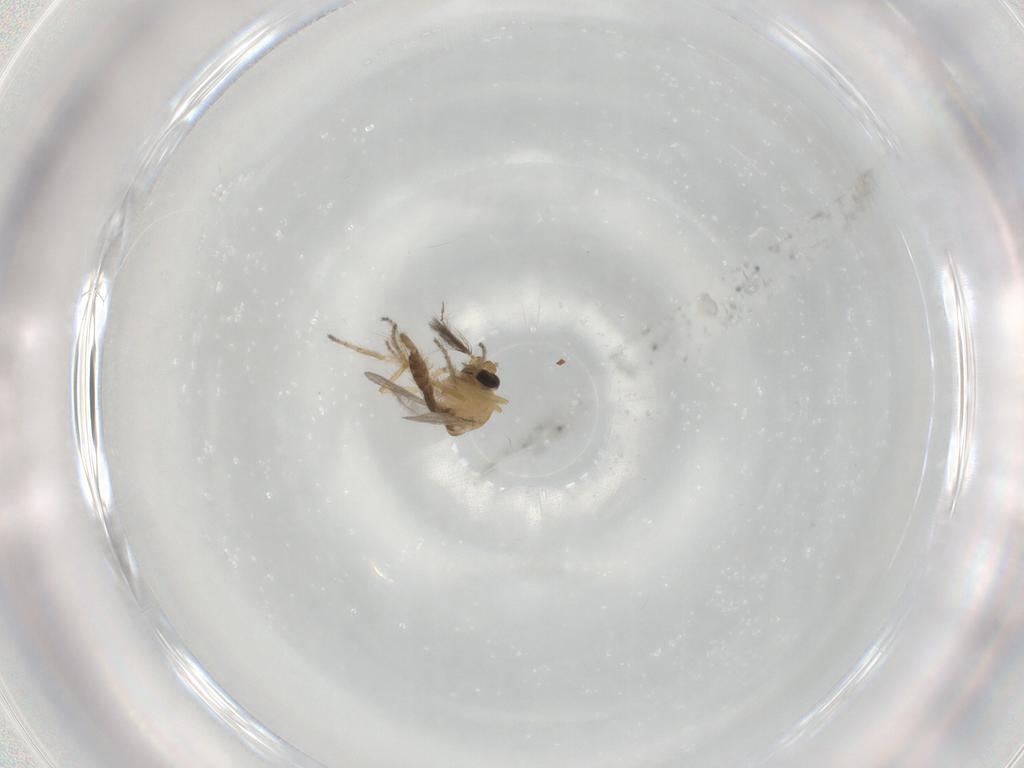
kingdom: Animalia
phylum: Arthropoda
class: Insecta
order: Diptera
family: Ceratopogonidae
